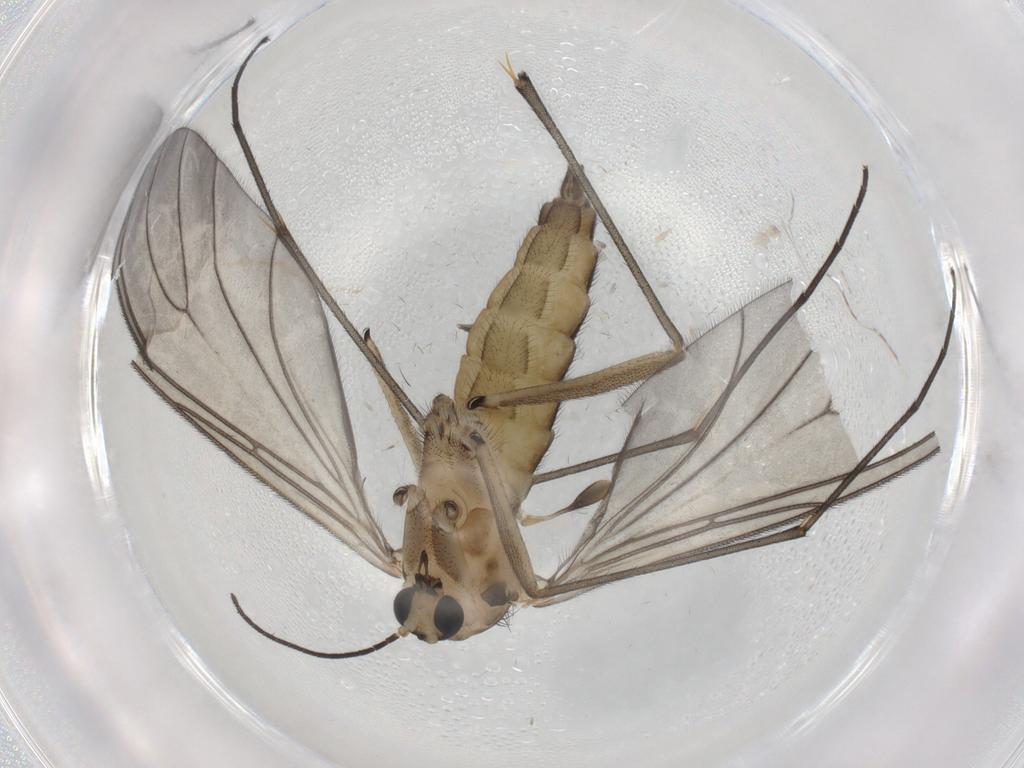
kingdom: Animalia
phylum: Arthropoda
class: Insecta
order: Diptera
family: Sciaridae
